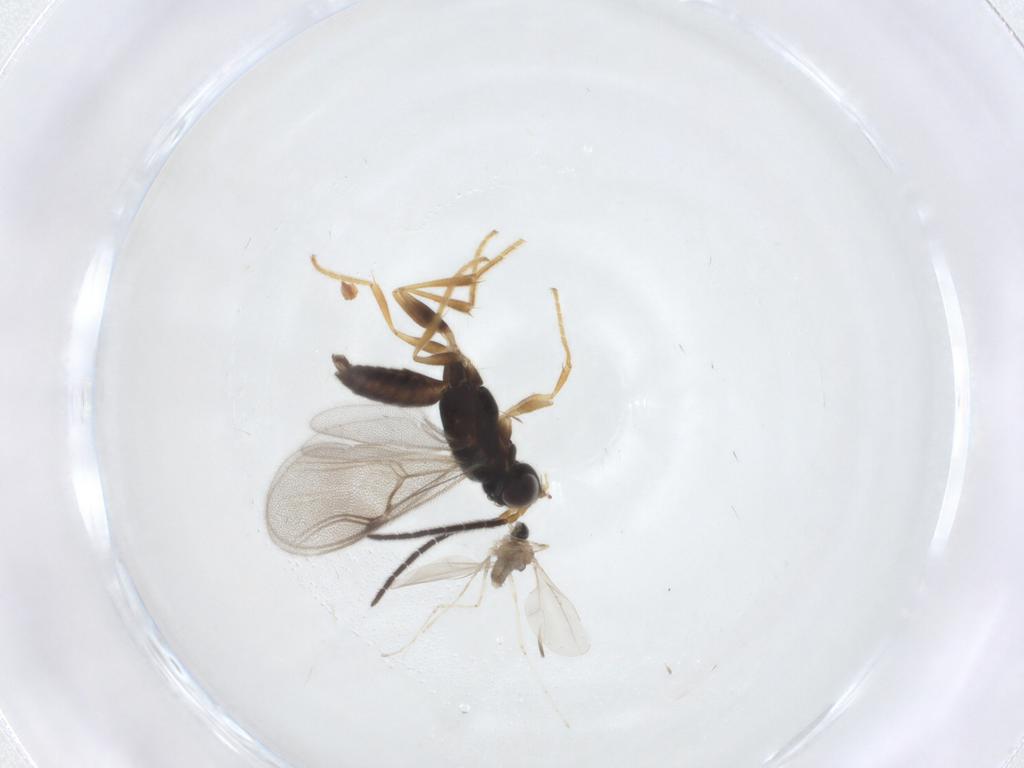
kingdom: Animalia
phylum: Arthropoda
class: Insecta
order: Hymenoptera
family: Dryinidae
